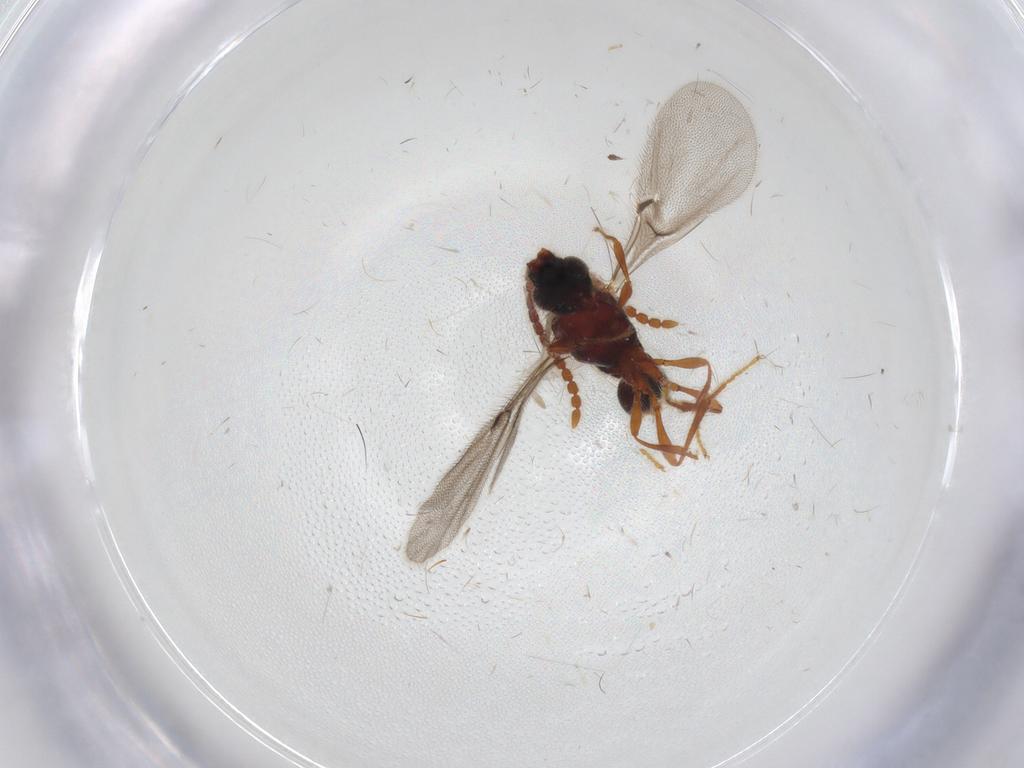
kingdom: Animalia
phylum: Arthropoda
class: Insecta
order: Hymenoptera
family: Diapriidae
